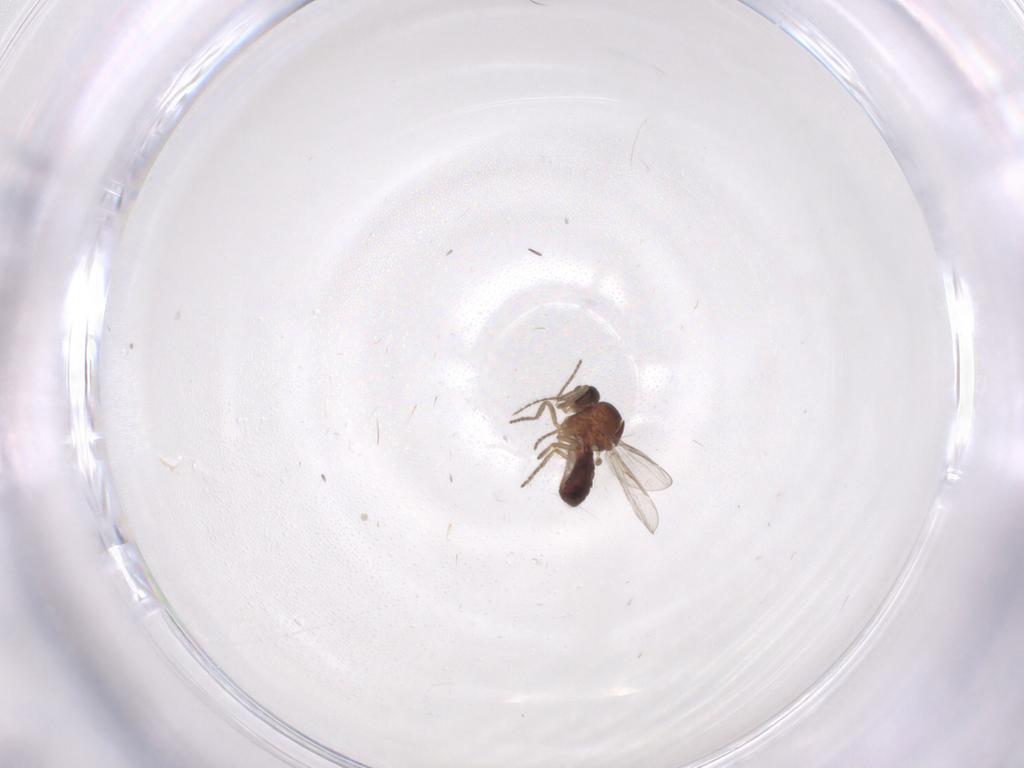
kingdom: Animalia
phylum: Arthropoda
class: Insecta
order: Diptera
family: Ceratopogonidae
